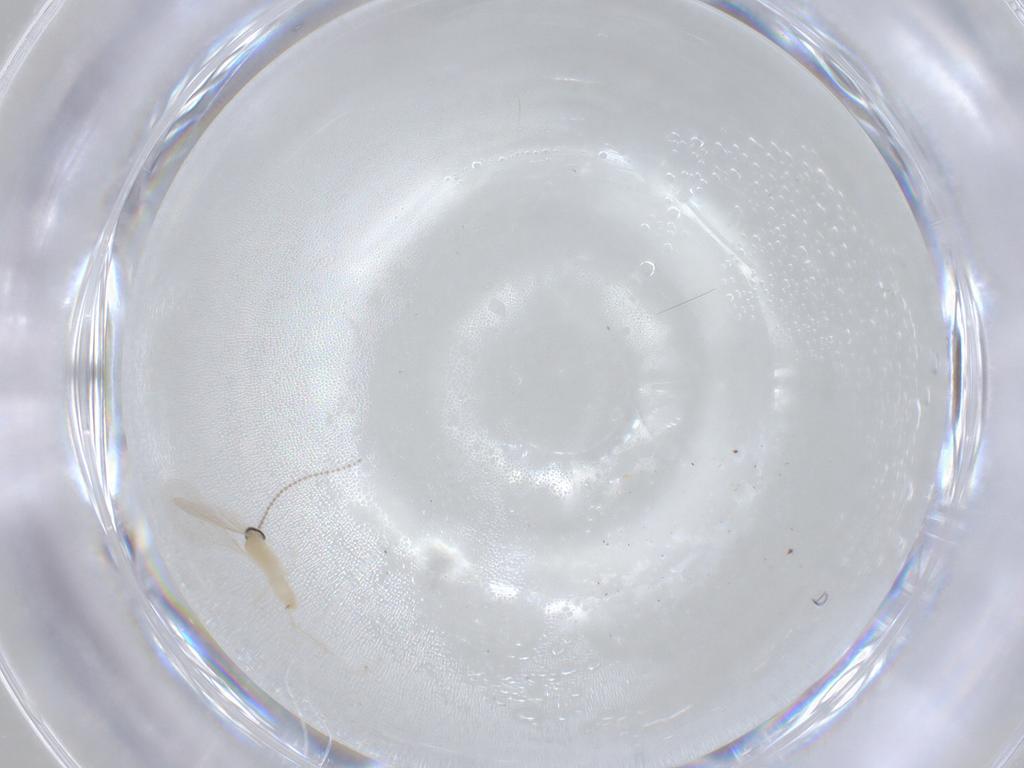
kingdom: Animalia
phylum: Arthropoda
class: Insecta
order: Diptera
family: Cecidomyiidae
